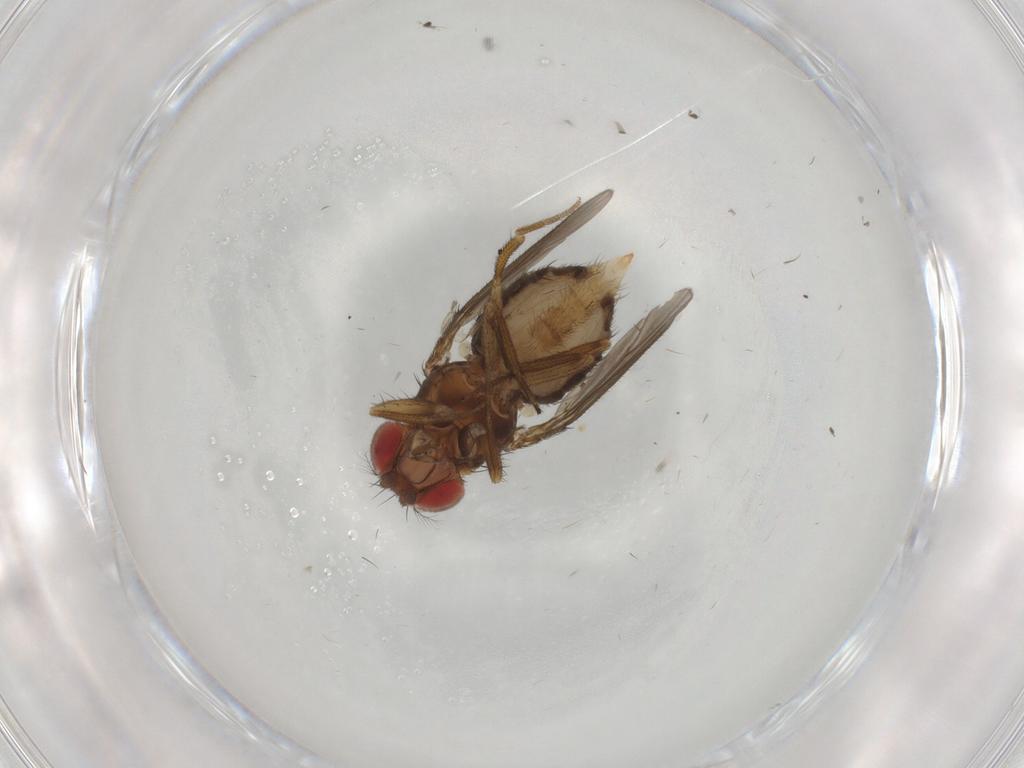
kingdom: Animalia
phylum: Arthropoda
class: Insecta
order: Diptera
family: Drosophilidae
